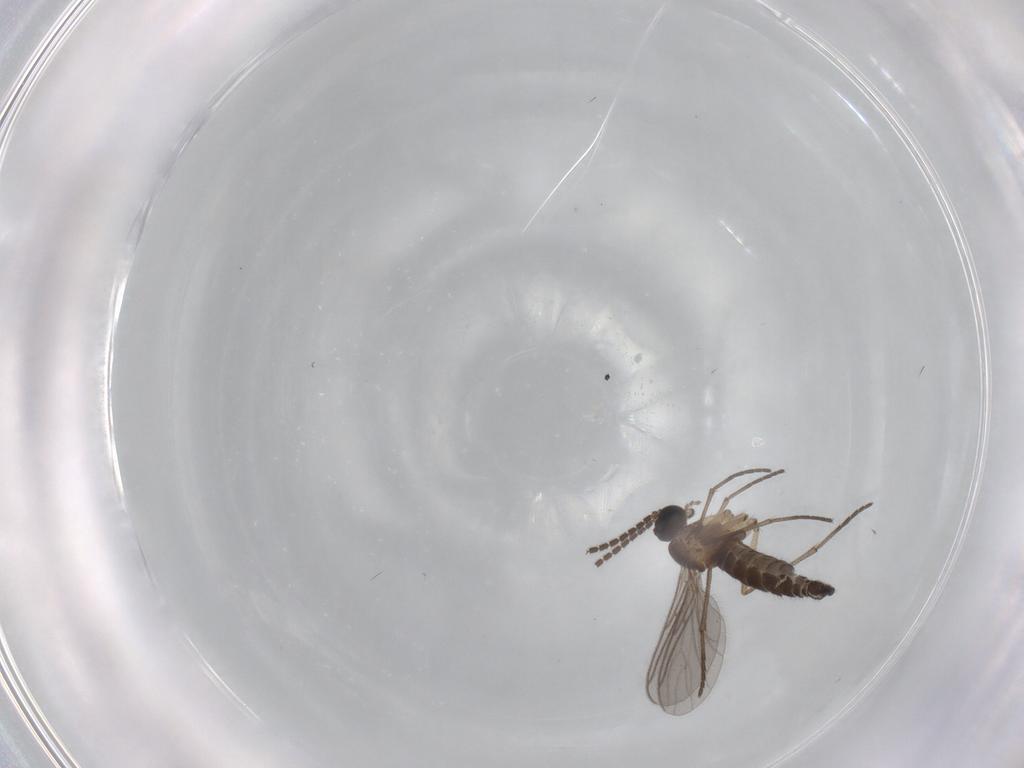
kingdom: Animalia
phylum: Arthropoda
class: Insecta
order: Diptera
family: Sciaridae
